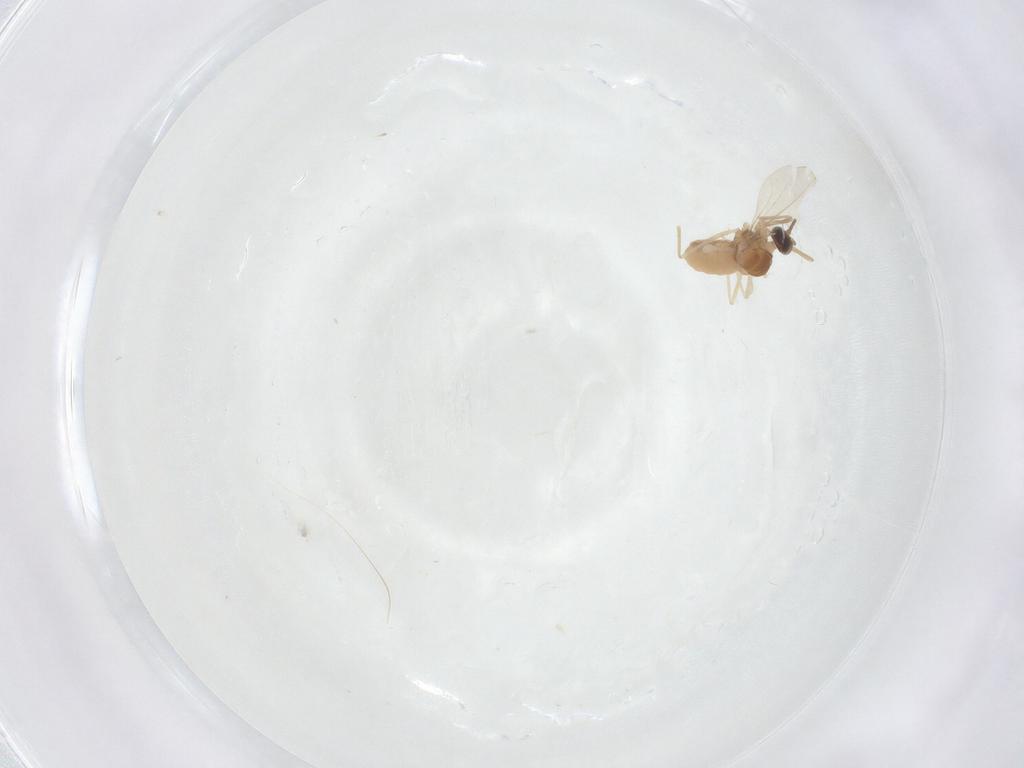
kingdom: Animalia
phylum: Arthropoda
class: Insecta
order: Diptera
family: Cecidomyiidae
